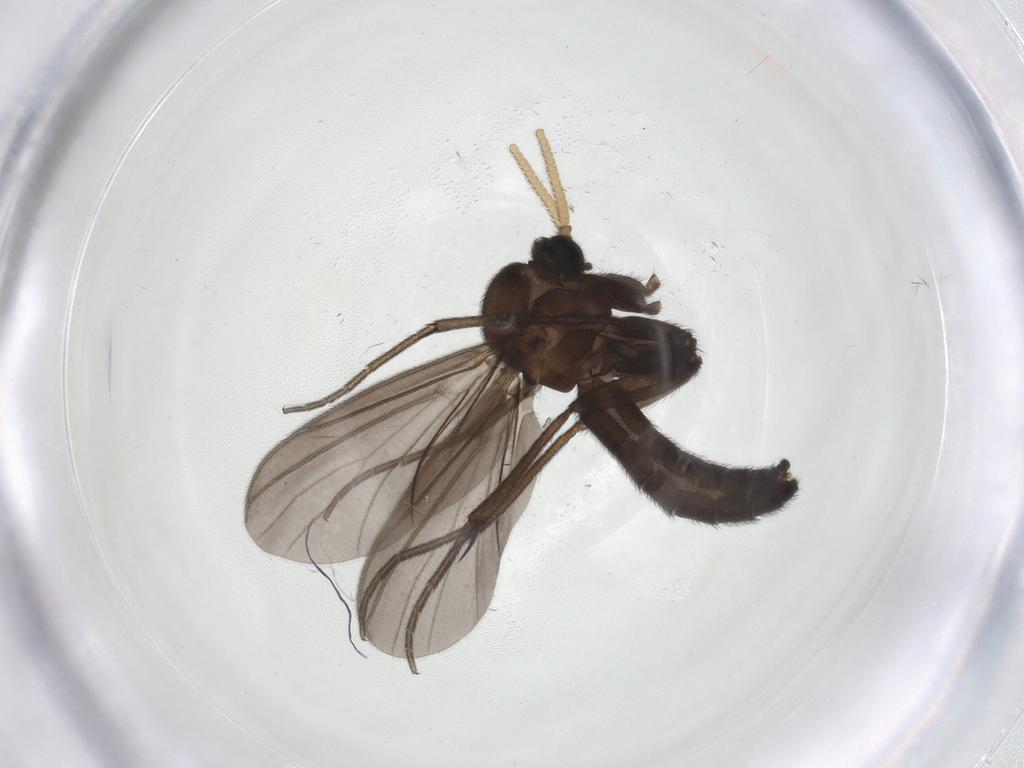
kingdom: Animalia
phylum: Arthropoda
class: Insecta
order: Diptera
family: Mycetophilidae
